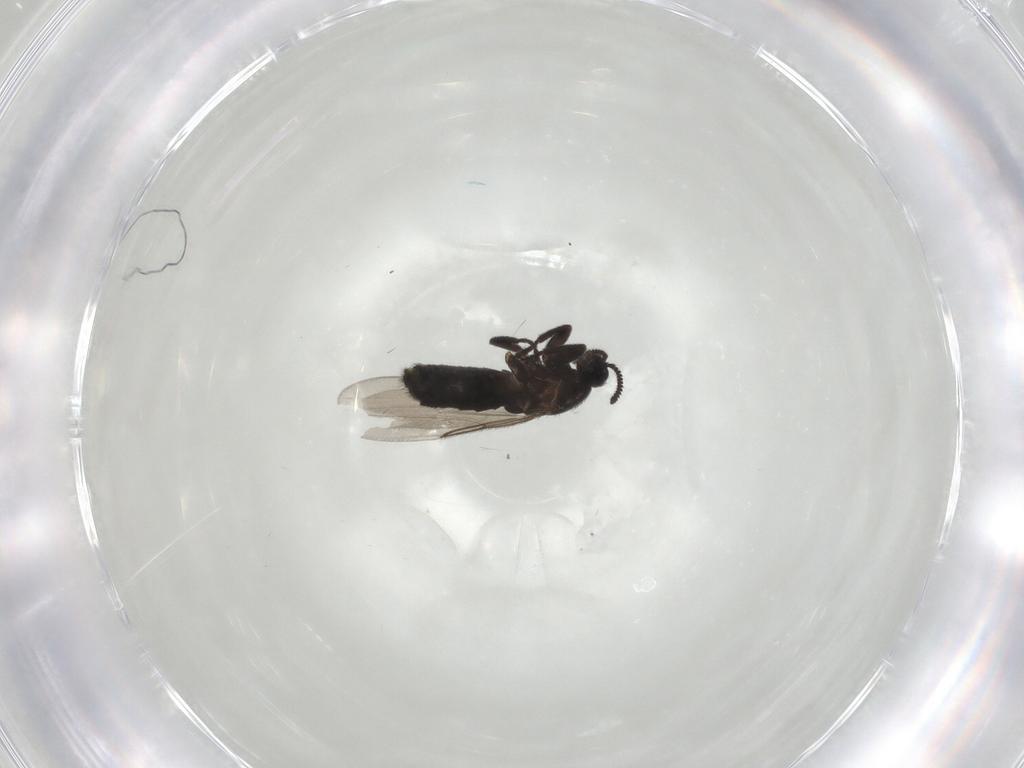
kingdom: Animalia
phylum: Arthropoda
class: Insecta
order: Diptera
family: Scatopsidae
